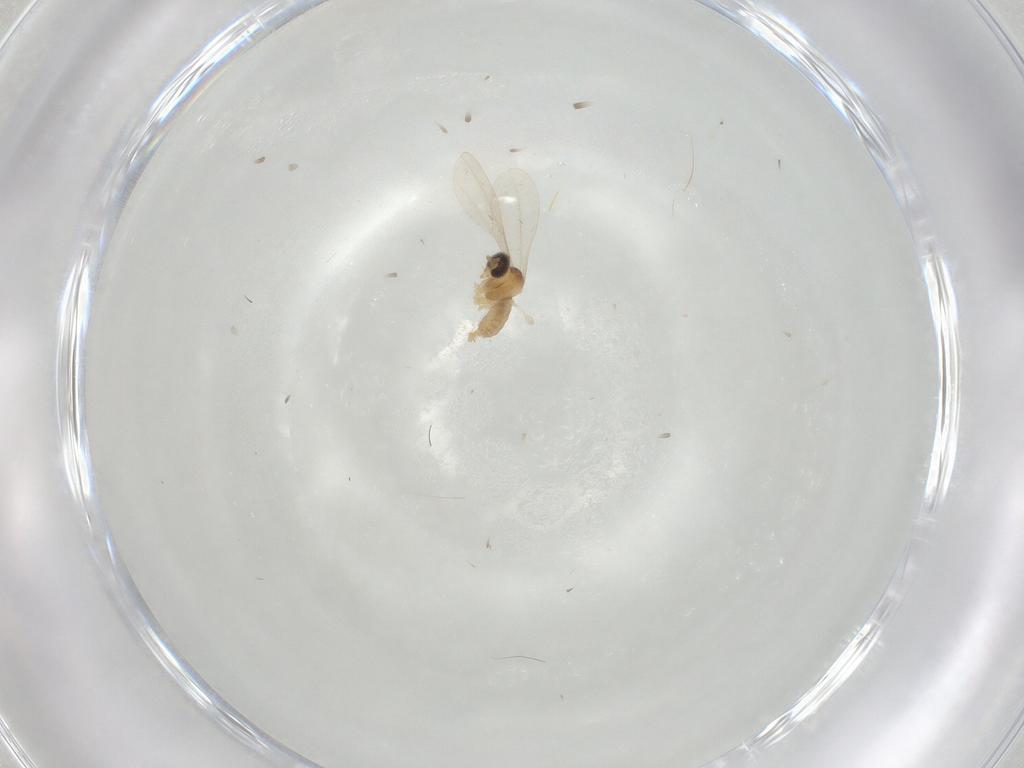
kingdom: Animalia
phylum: Arthropoda
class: Insecta
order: Diptera
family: Cecidomyiidae
